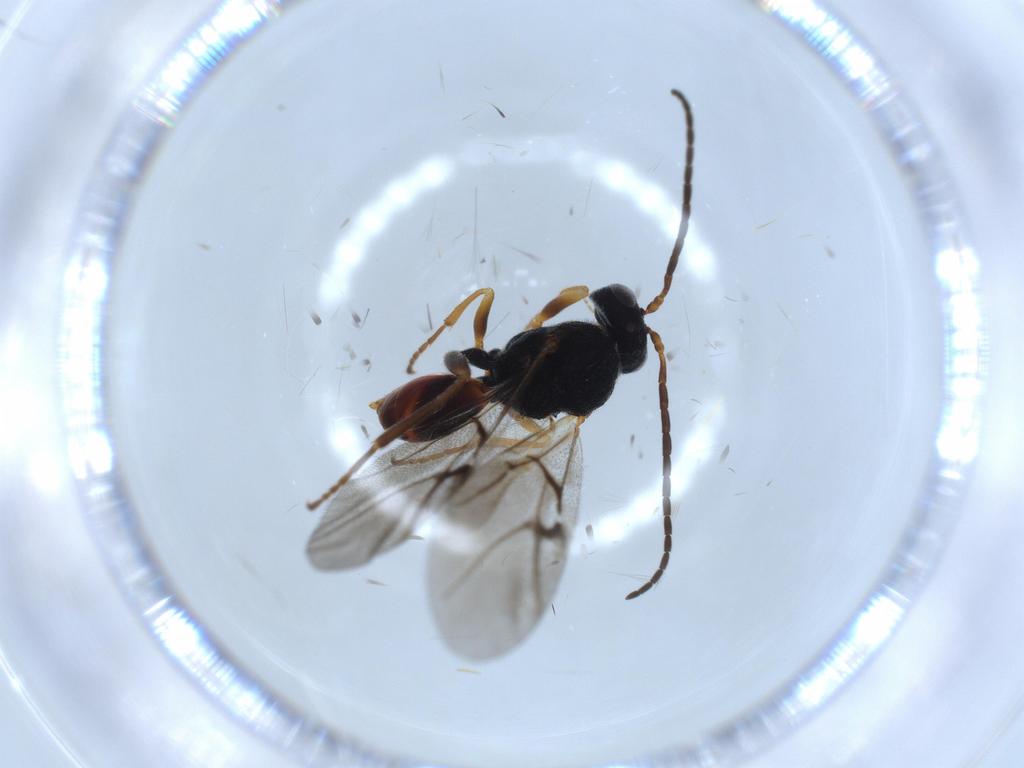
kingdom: Animalia
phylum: Arthropoda
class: Insecta
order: Hymenoptera
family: Cynipidae
